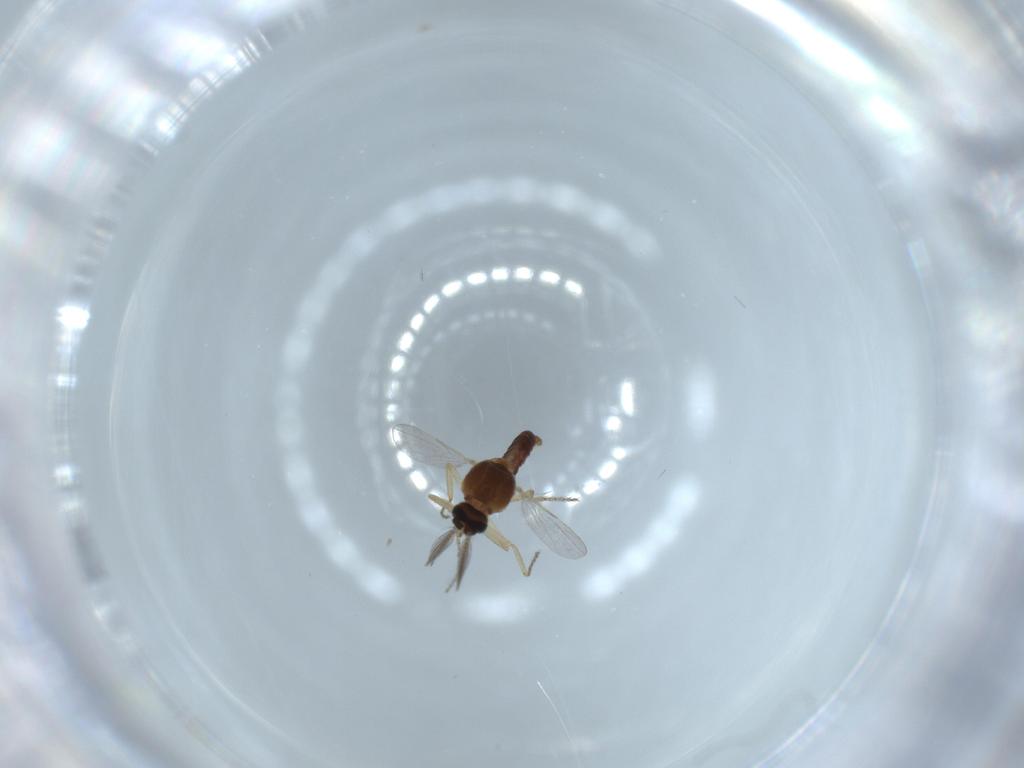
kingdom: Animalia
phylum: Arthropoda
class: Insecta
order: Diptera
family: Ceratopogonidae
